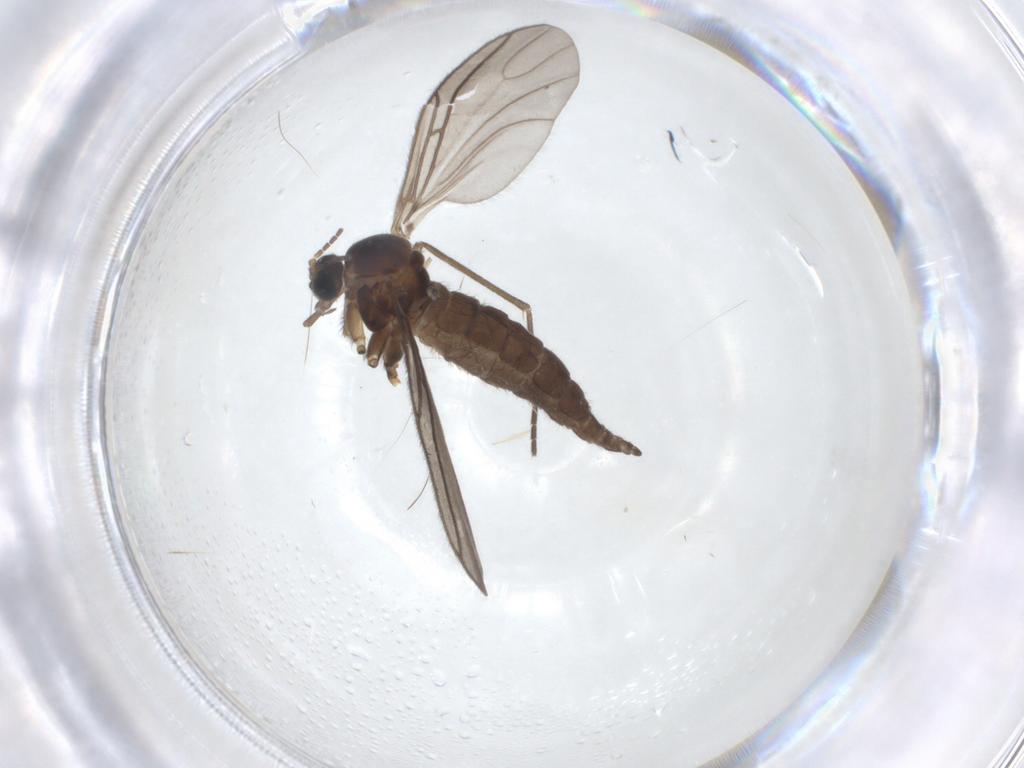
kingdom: Animalia
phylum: Arthropoda
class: Insecta
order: Diptera
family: Sciaridae
